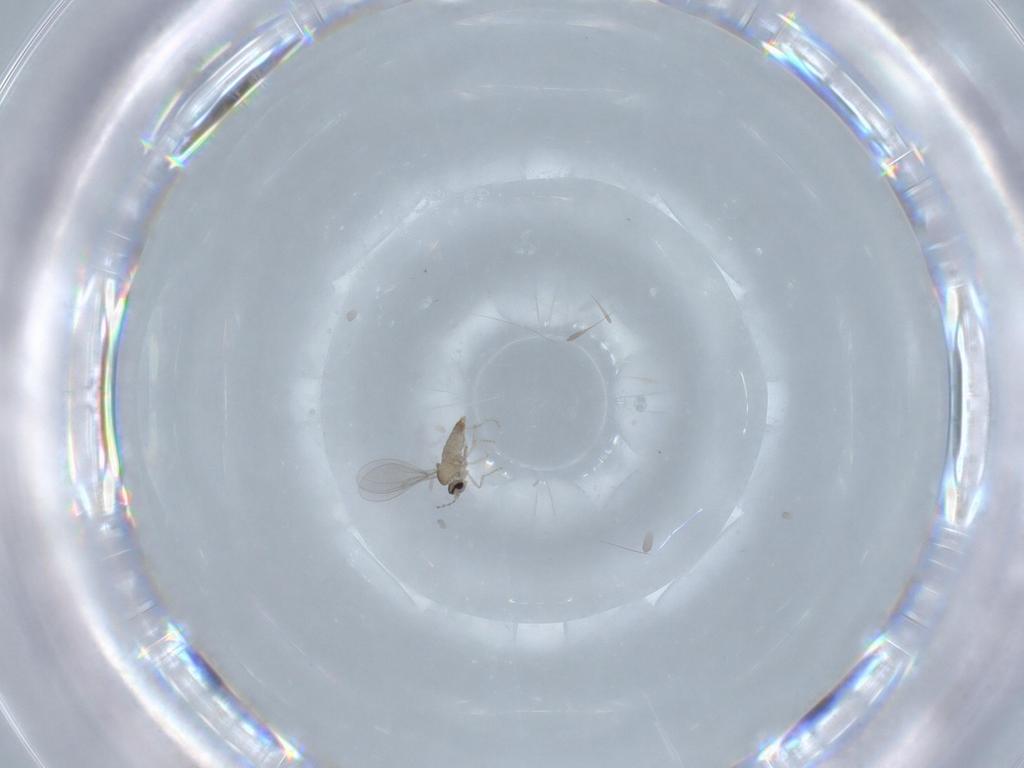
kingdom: Animalia
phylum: Arthropoda
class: Insecta
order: Diptera
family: Cecidomyiidae
